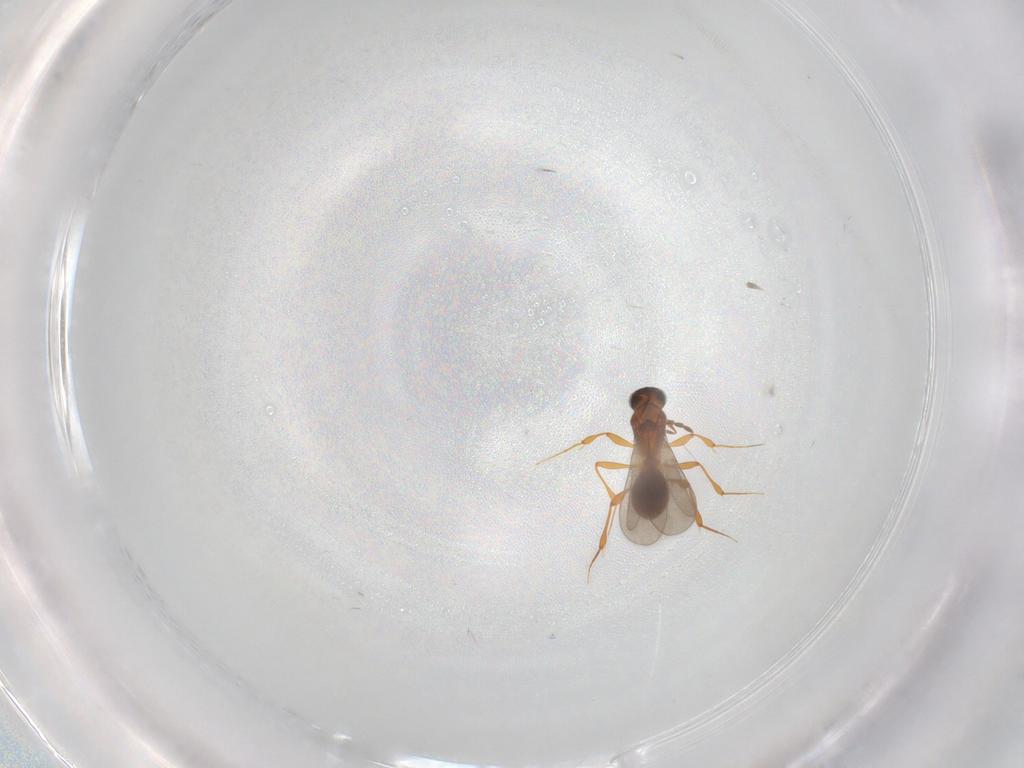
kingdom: Animalia
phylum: Arthropoda
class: Insecta
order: Hymenoptera
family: Platygastridae
